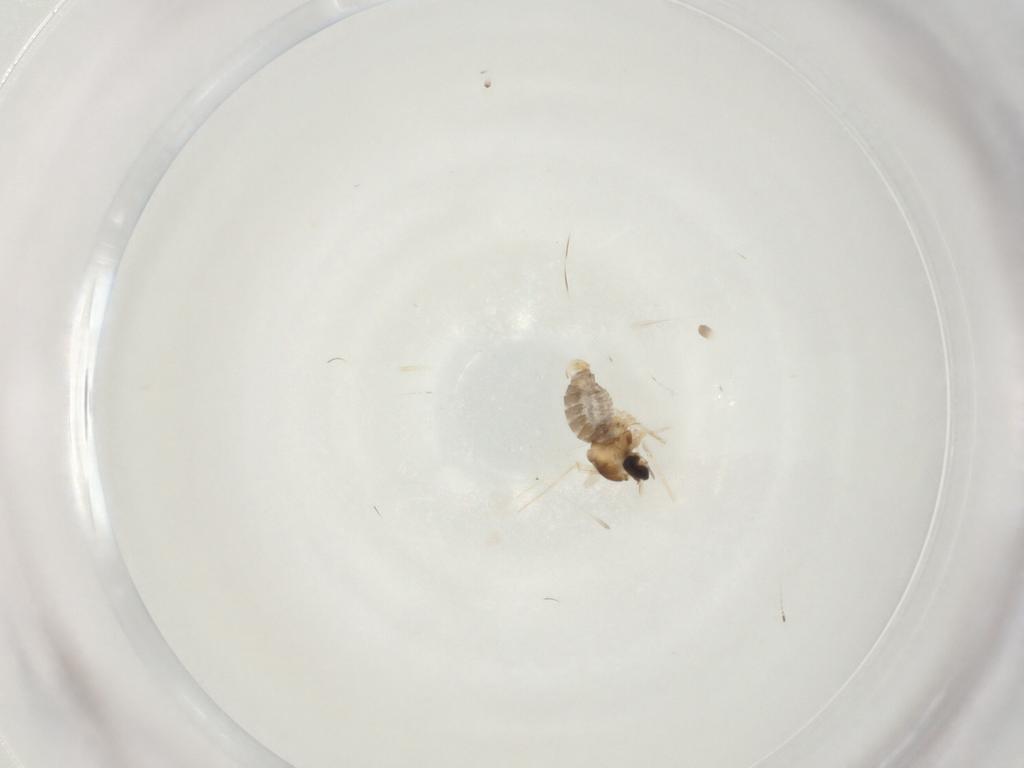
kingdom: Animalia
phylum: Arthropoda
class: Insecta
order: Diptera
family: Cecidomyiidae
